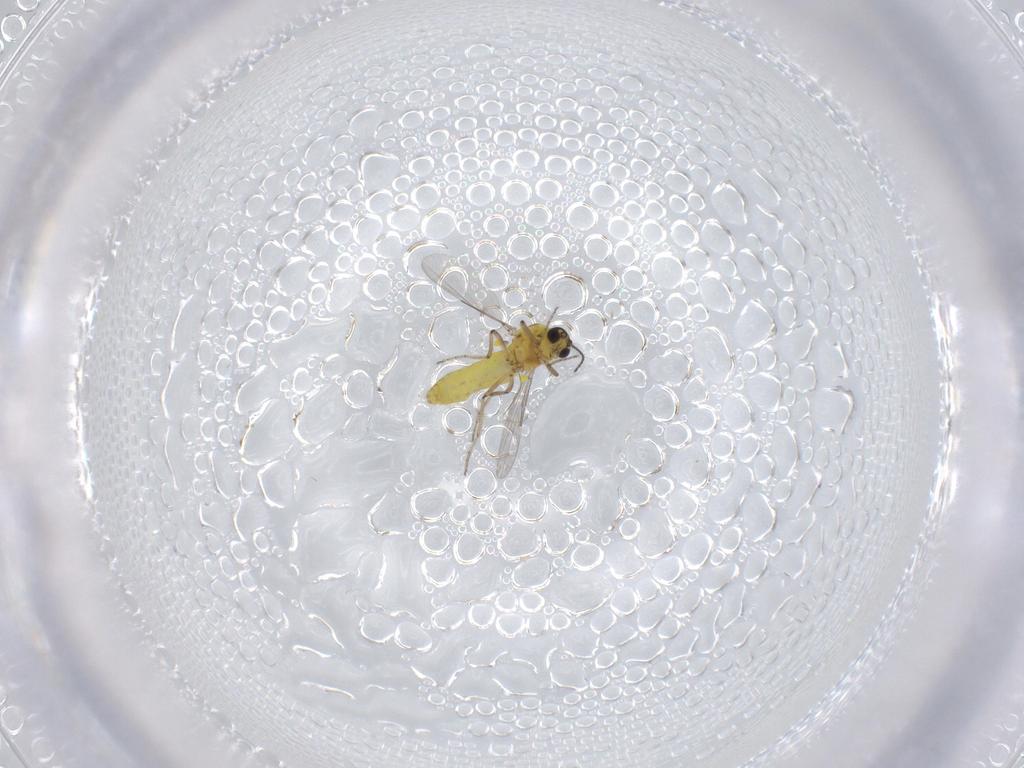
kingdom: Animalia
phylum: Arthropoda
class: Insecta
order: Diptera
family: Ceratopogonidae
